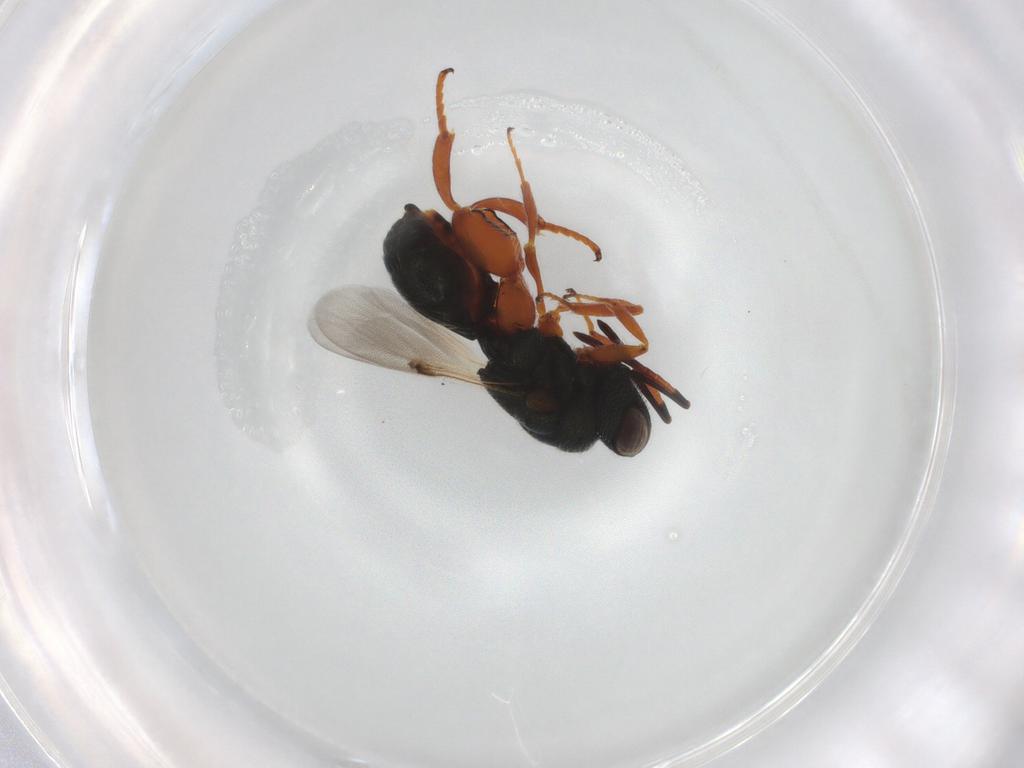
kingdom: Animalia
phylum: Arthropoda
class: Insecta
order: Hymenoptera
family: Chalcididae
